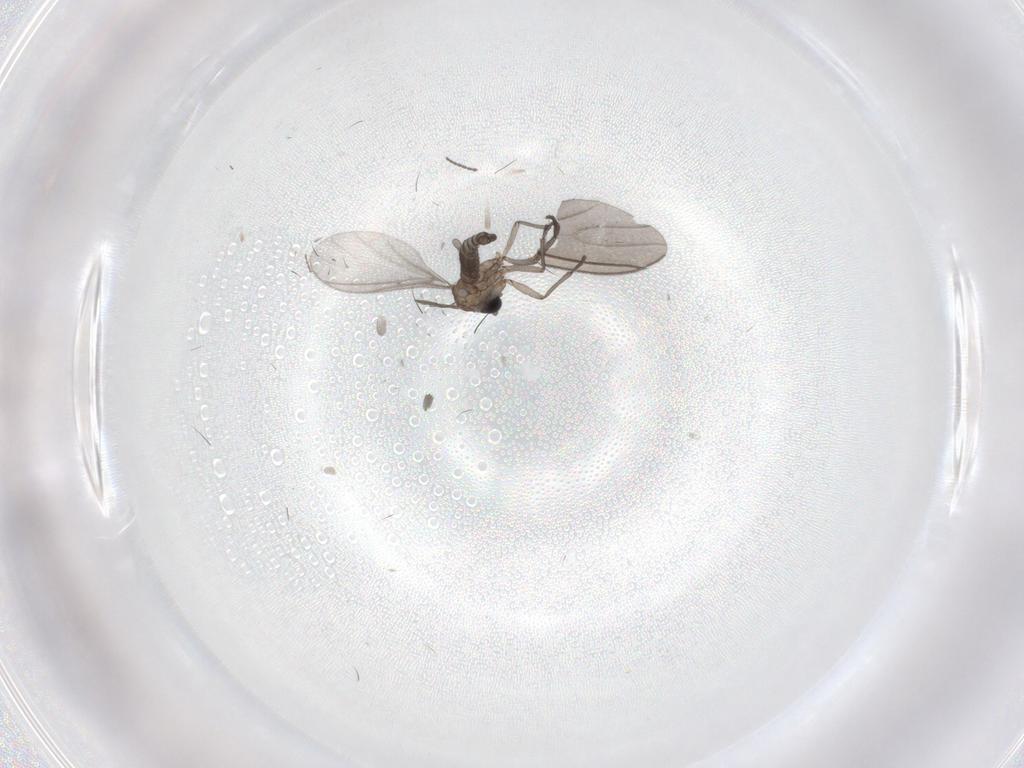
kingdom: Animalia
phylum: Arthropoda
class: Insecta
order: Diptera
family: Sciaridae
